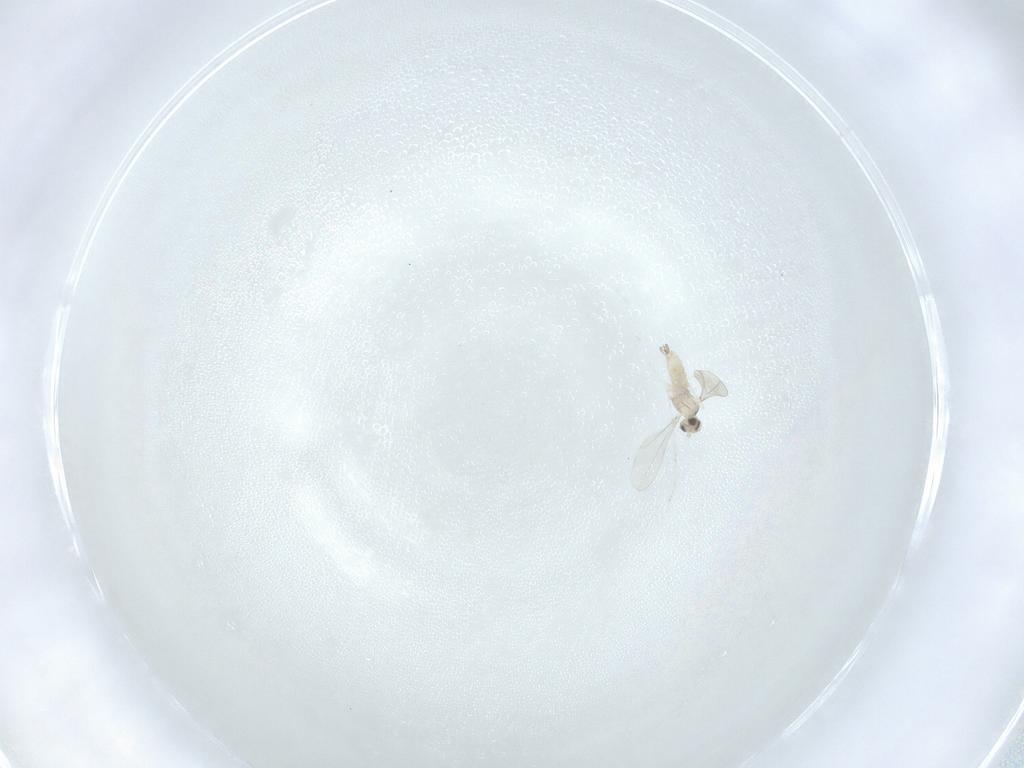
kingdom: Animalia
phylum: Arthropoda
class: Insecta
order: Diptera
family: Cecidomyiidae
